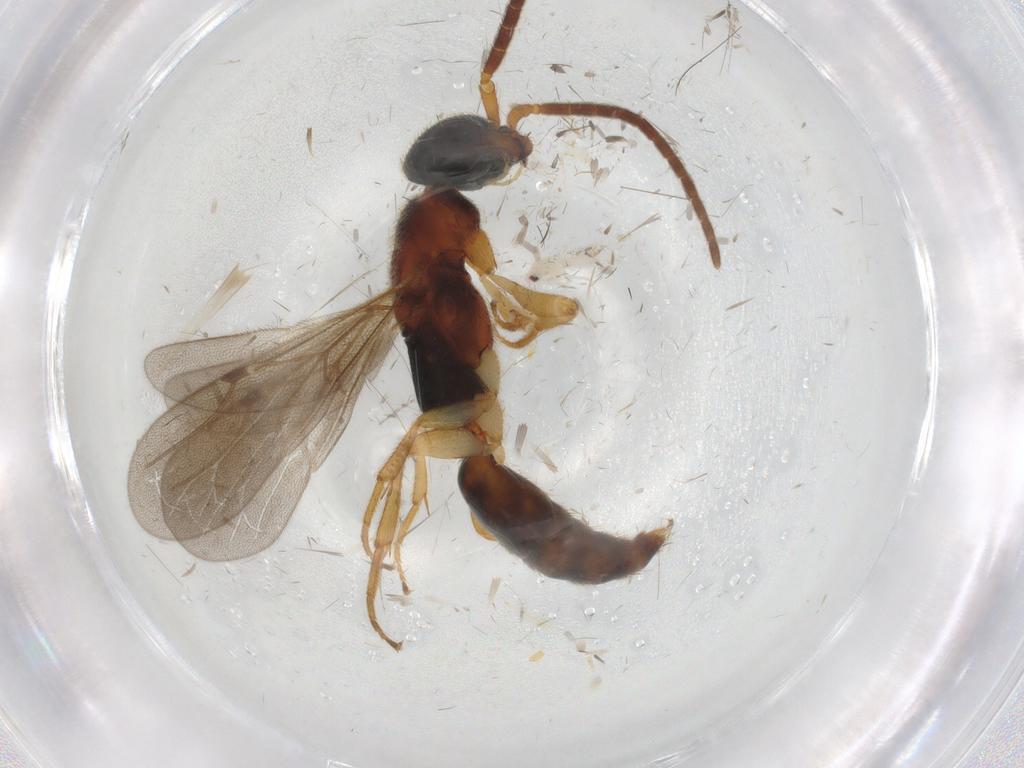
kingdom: Animalia
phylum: Arthropoda
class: Insecta
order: Hymenoptera
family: Bethylidae
